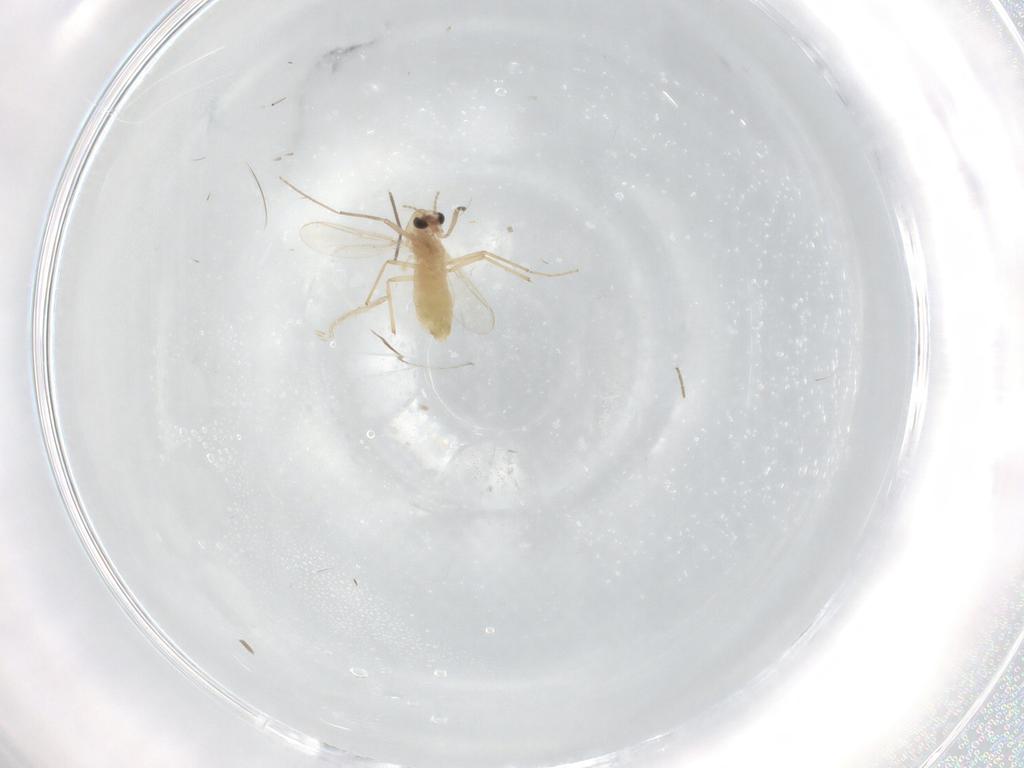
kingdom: Animalia
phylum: Arthropoda
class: Insecta
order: Diptera
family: Chironomidae
